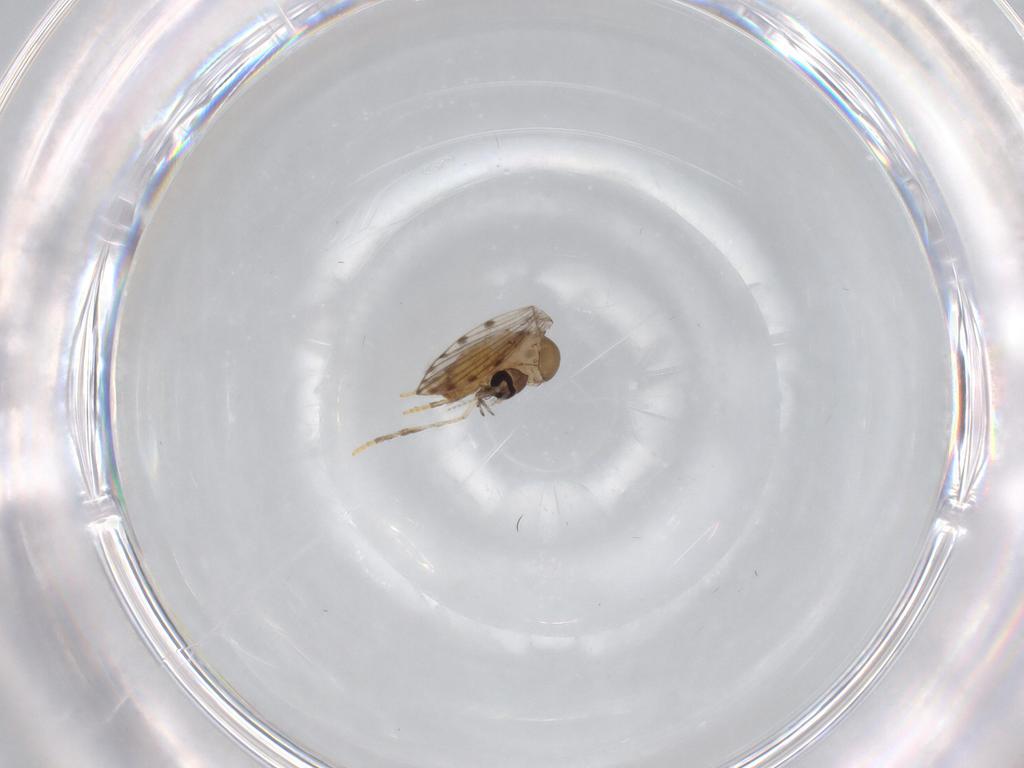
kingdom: Animalia
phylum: Arthropoda
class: Insecta
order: Diptera
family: Psychodidae
